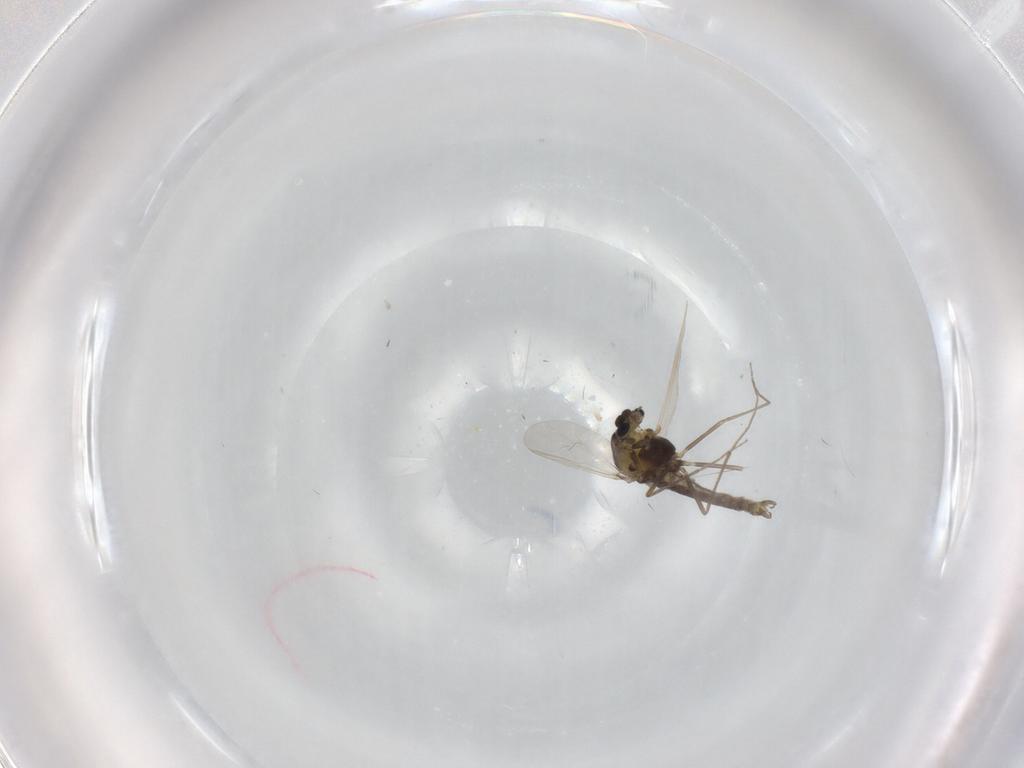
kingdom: Animalia
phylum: Arthropoda
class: Insecta
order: Diptera
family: Chironomidae
